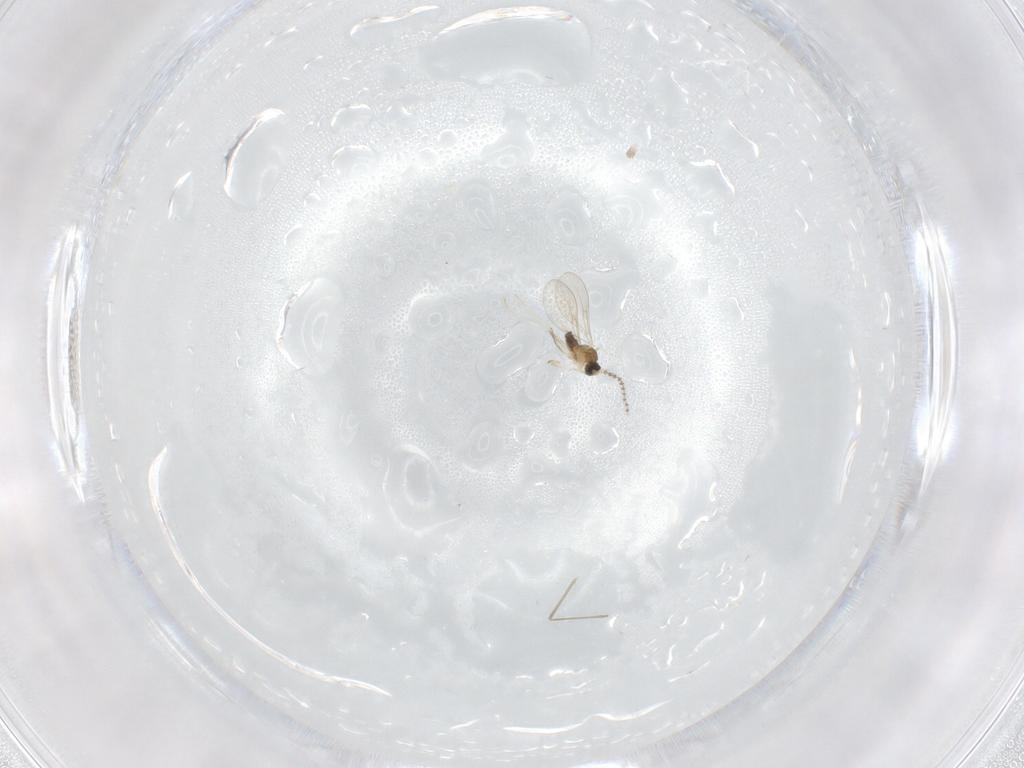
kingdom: Animalia
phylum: Arthropoda
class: Insecta
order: Diptera
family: Cecidomyiidae
